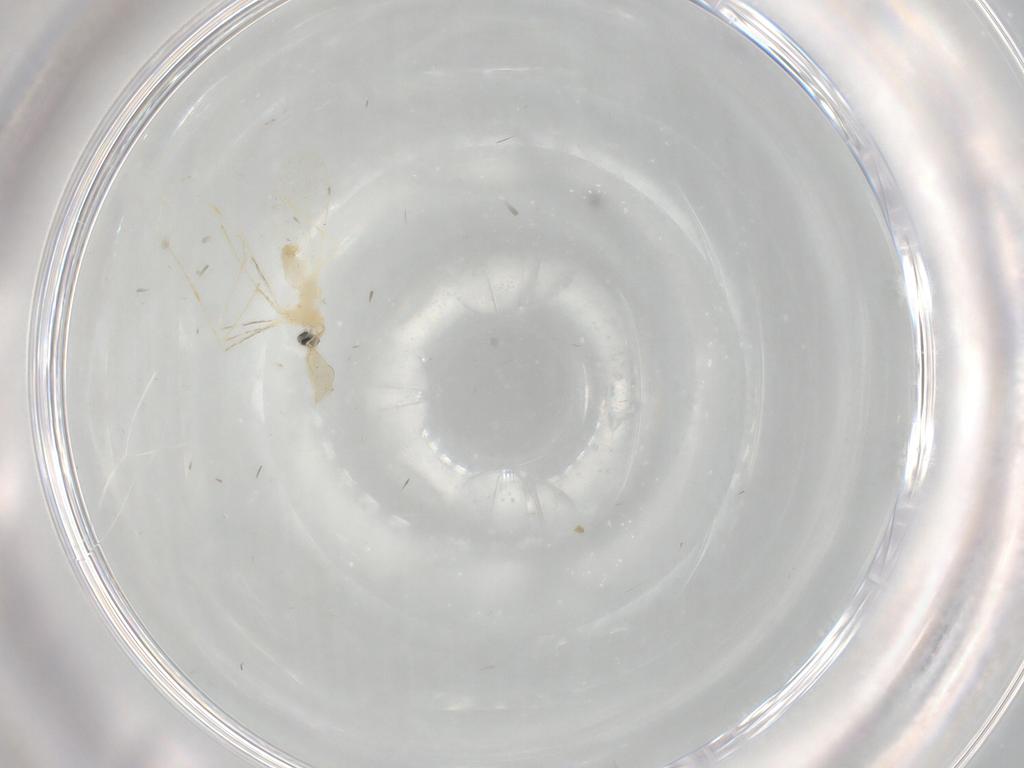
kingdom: Animalia
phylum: Arthropoda
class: Insecta
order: Diptera
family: Cecidomyiidae
